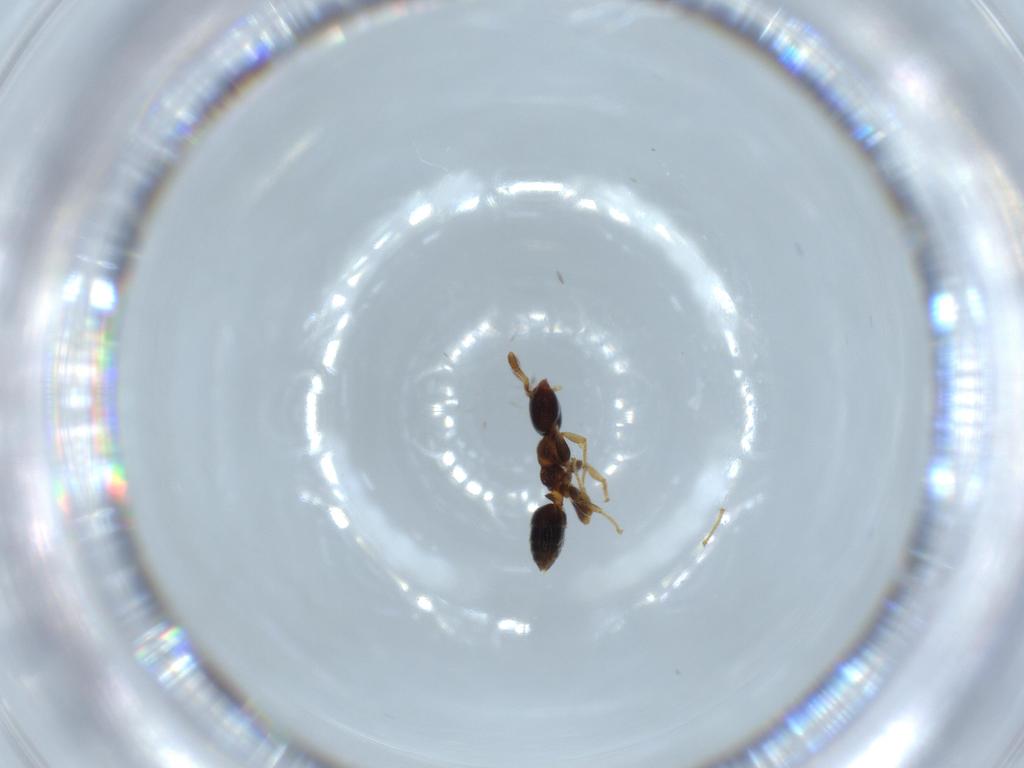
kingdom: Animalia
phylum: Arthropoda
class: Insecta
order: Hymenoptera
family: Formicidae
